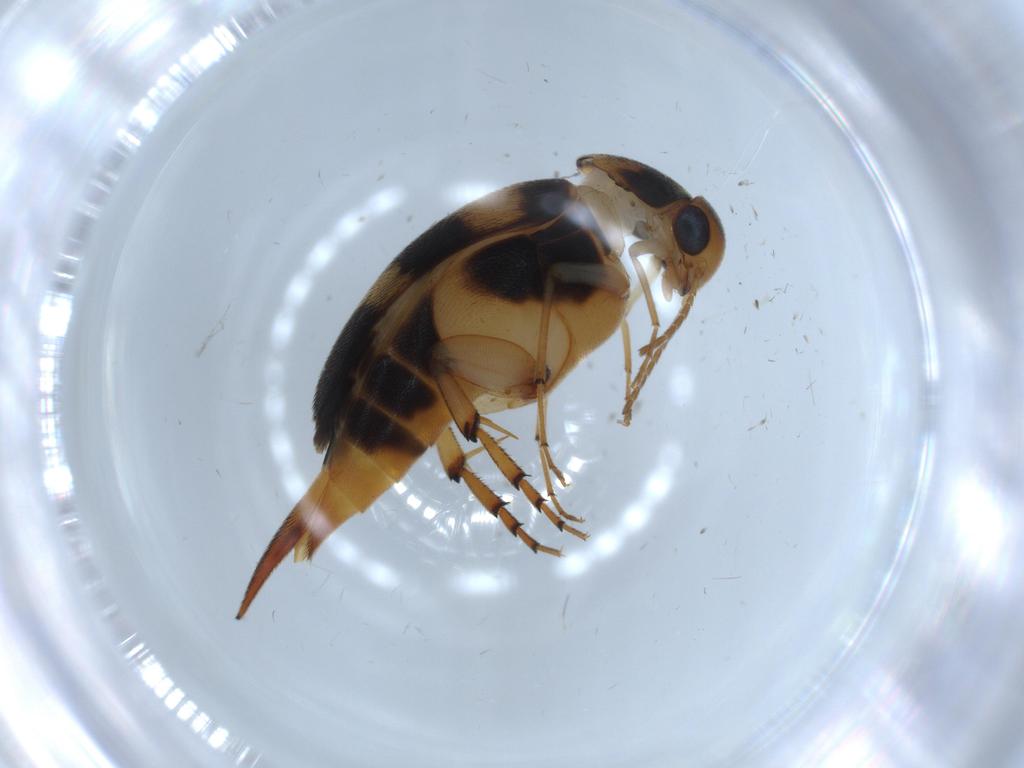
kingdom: Animalia
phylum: Arthropoda
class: Insecta
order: Coleoptera
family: Mordellidae
